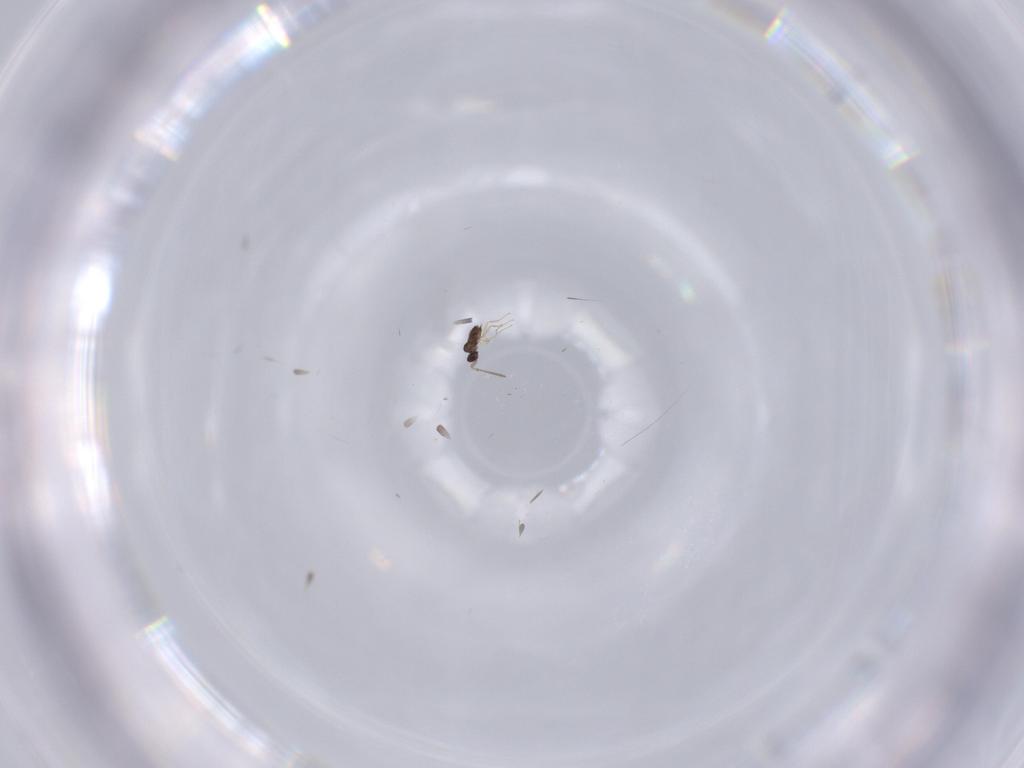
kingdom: Animalia
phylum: Arthropoda
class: Insecta
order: Hymenoptera
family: Mymaridae
